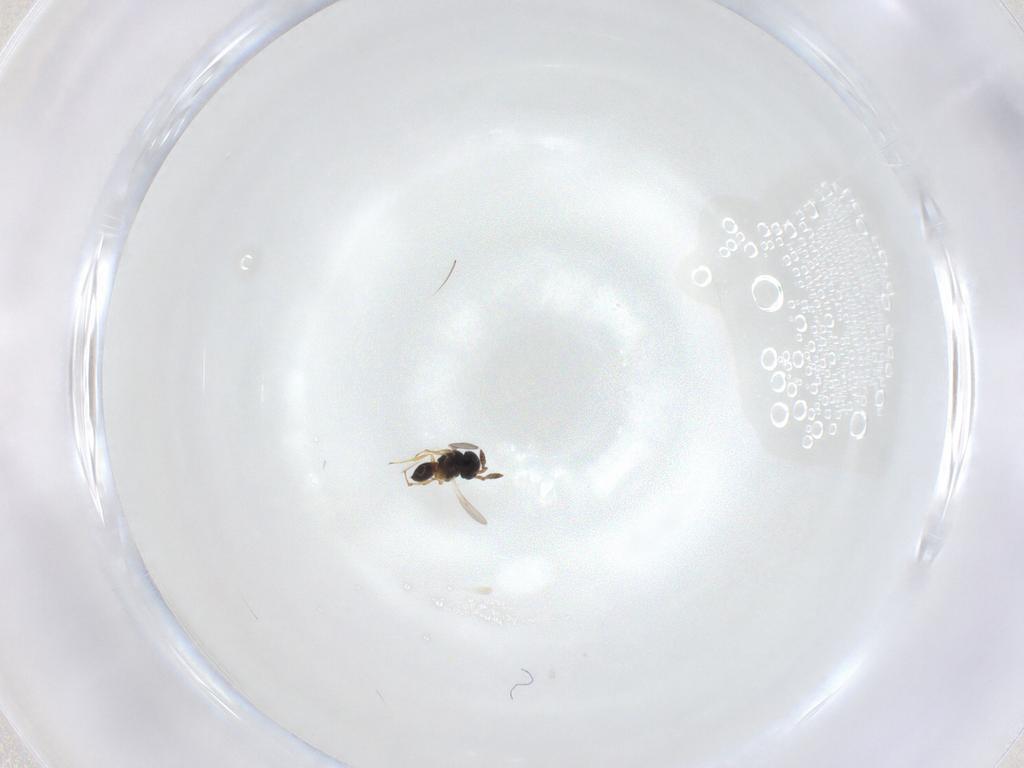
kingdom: Animalia
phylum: Arthropoda
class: Insecta
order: Hymenoptera
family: Scelionidae
